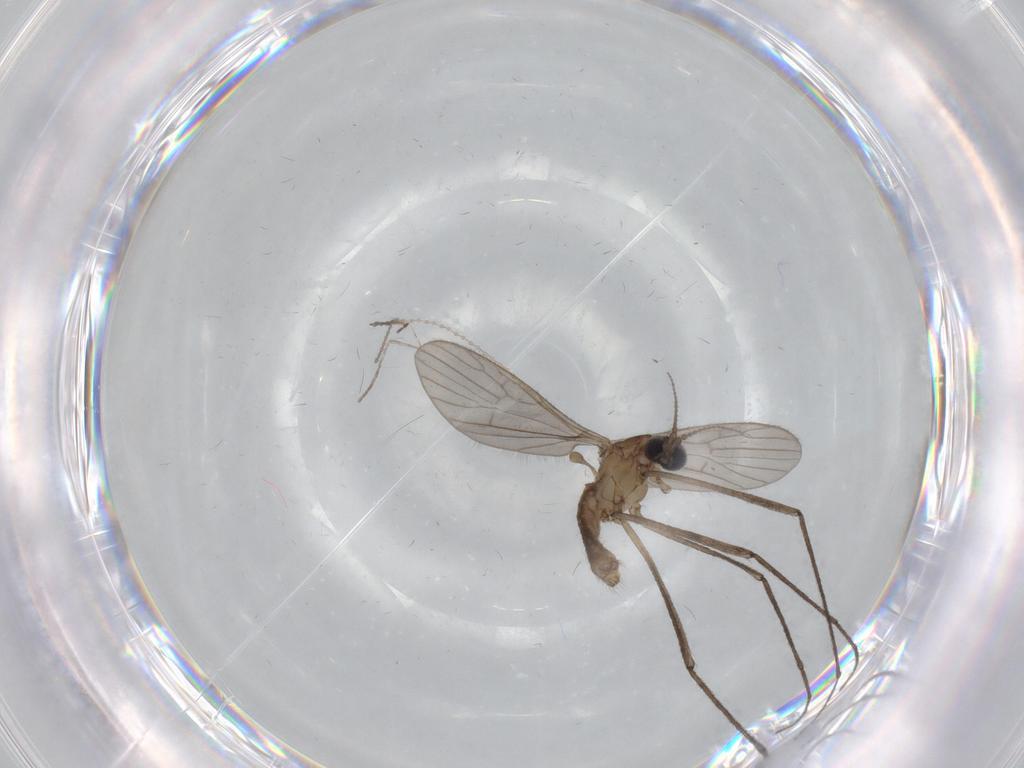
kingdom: Animalia
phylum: Arthropoda
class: Insecta
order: Diptera
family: Limoniidae
